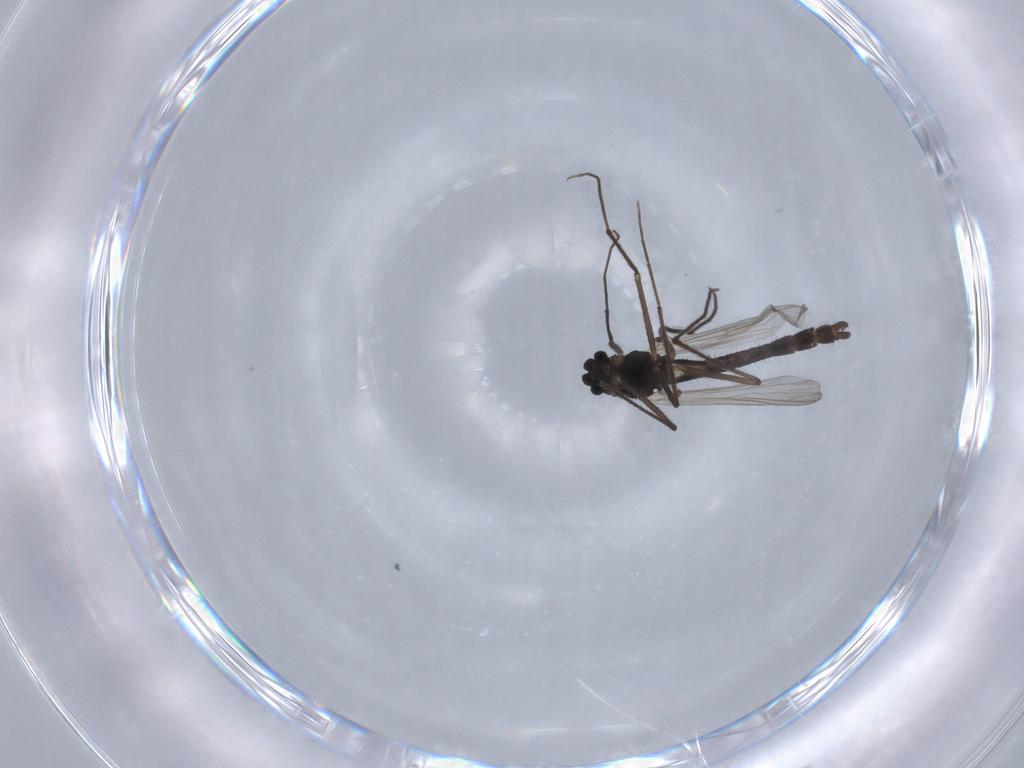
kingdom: Animalia
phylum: Arthropoda
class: Insecta
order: Diptera
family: Chironomidae
